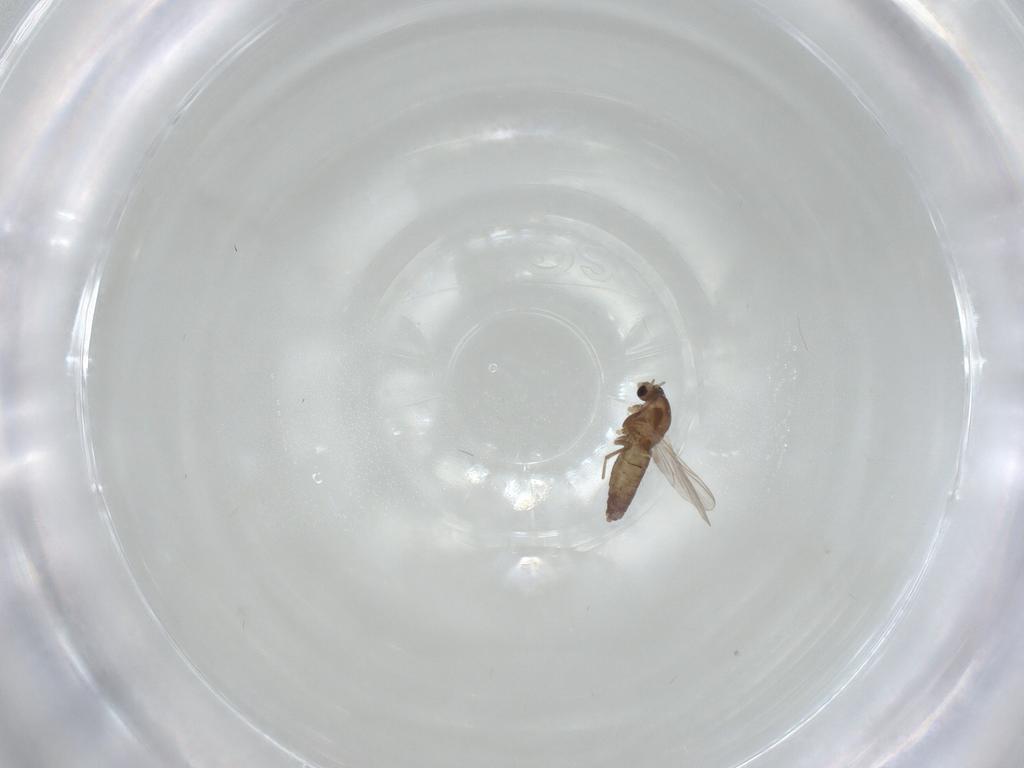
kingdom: Animalia
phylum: Arthropoda
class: Insecta
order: Diptera
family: Chironomidae
